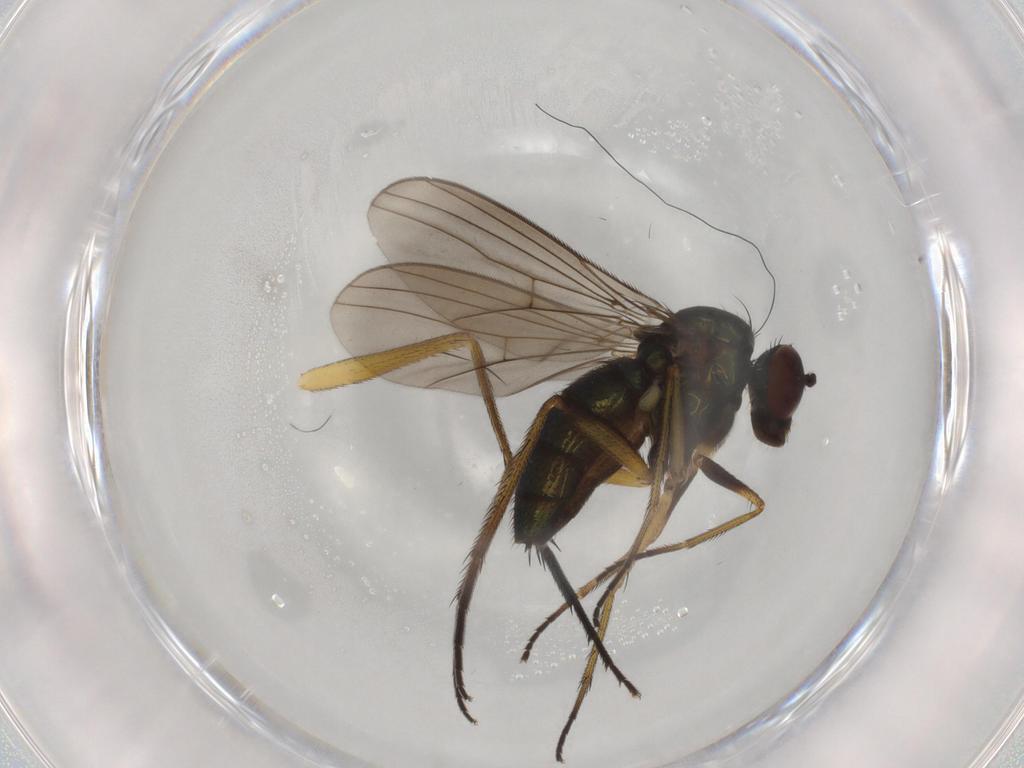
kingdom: Animalia
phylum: Arthropoda
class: Insecta
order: Diptera
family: Dolichopodidae
